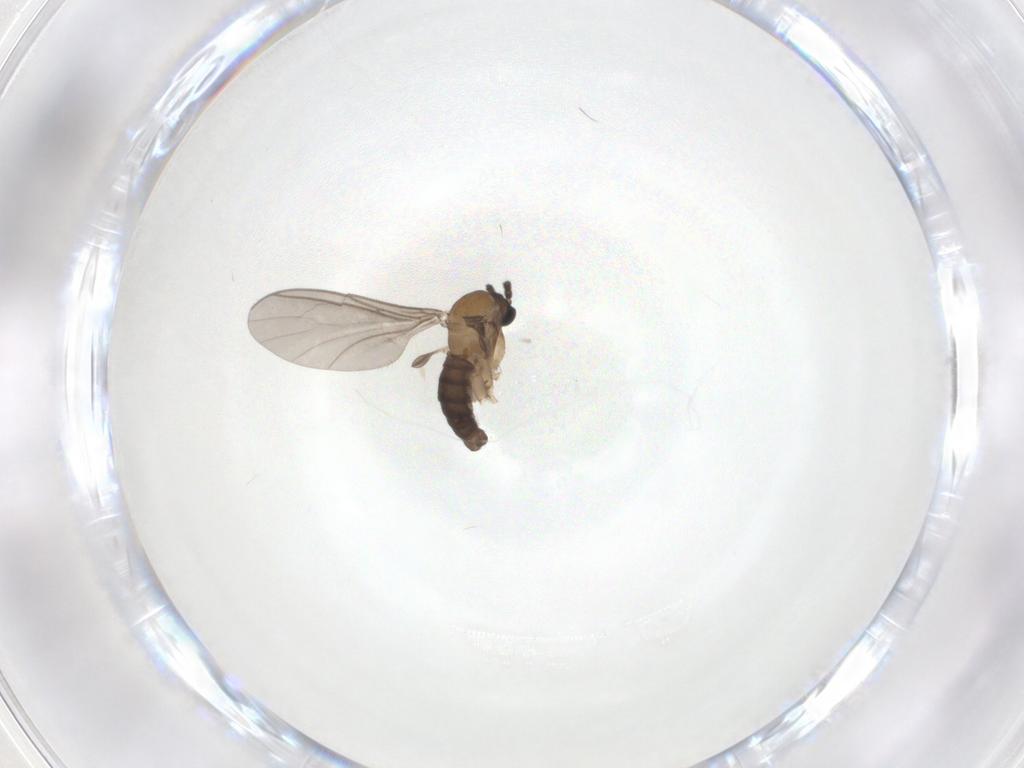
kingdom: Animalia
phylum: Arthropoda
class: Insecta
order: Diptera
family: Sciaridae
